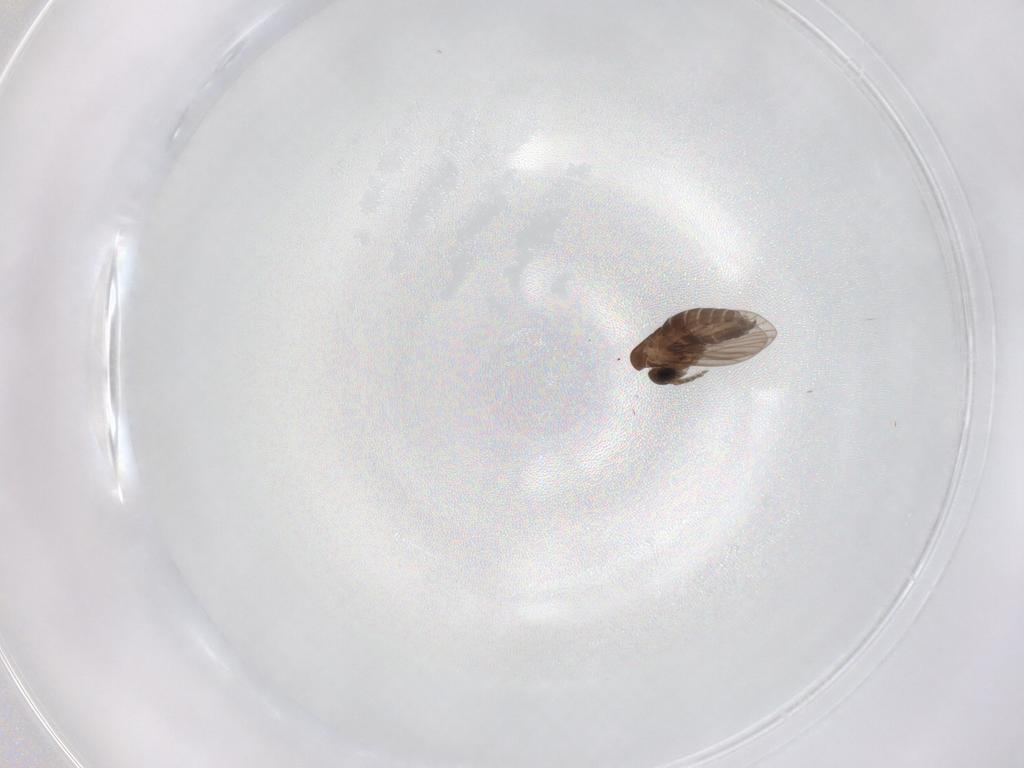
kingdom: Animalia
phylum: Arthropoda
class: Insecta
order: Diptera
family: Cecidomyiidae
